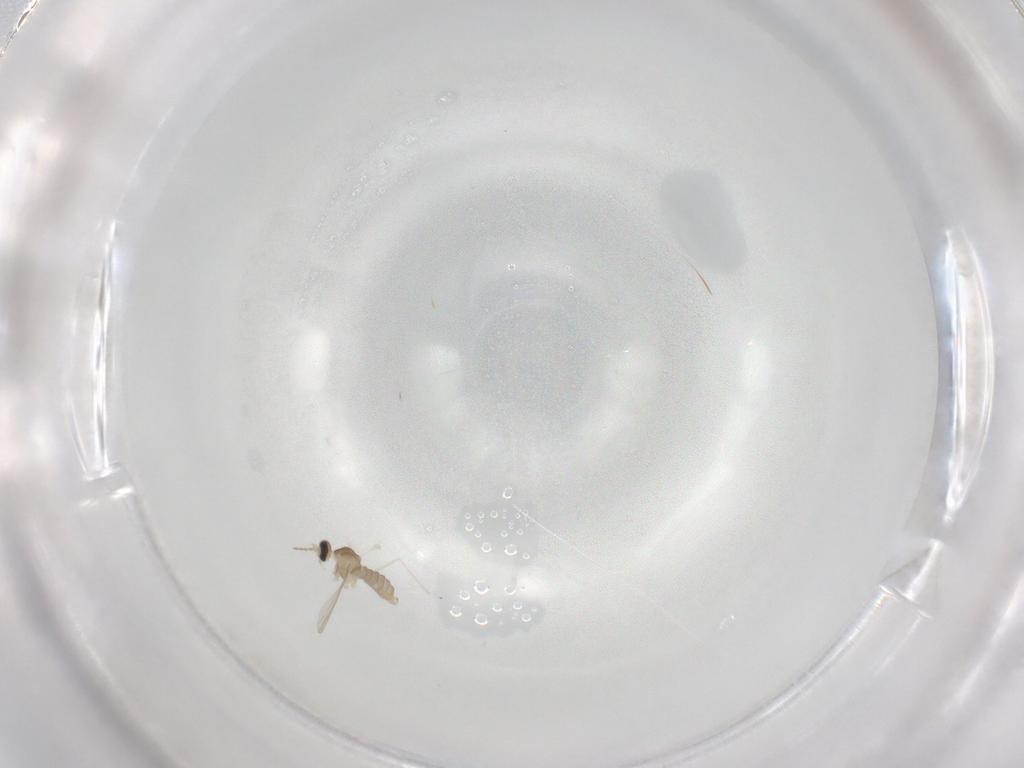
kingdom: Animalia
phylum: Arthropoda
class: Insecta
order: Diptera
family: Cecidomyiidae
